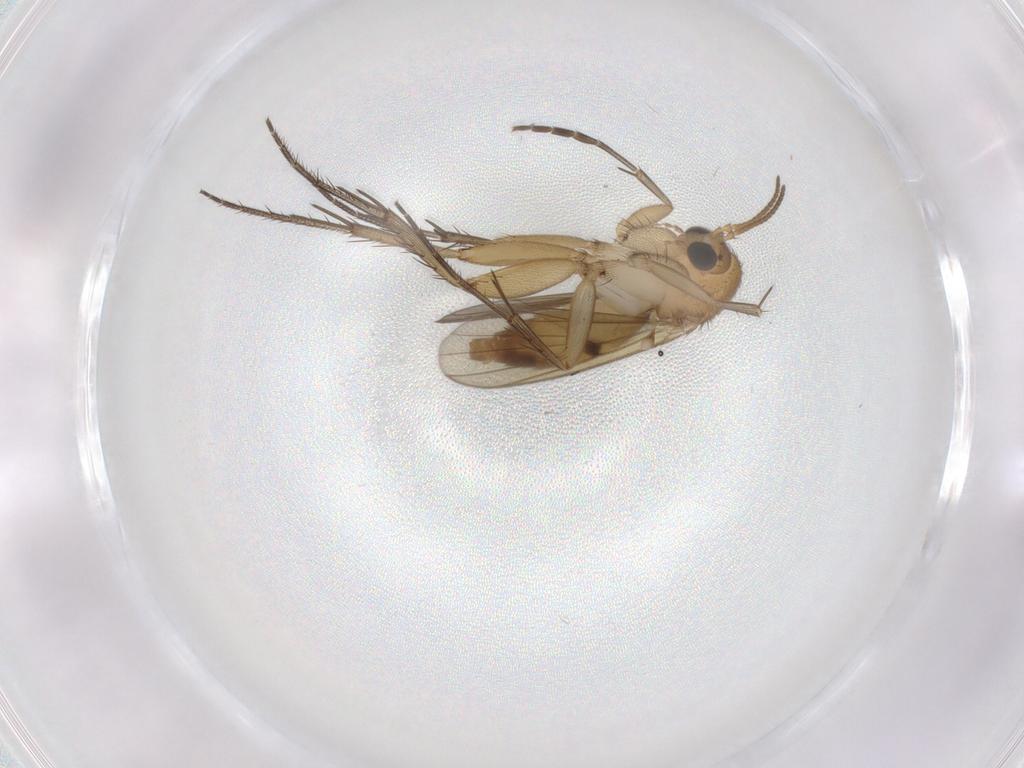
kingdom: Animalia
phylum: Arthropoda
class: Insecta
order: Diptera
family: Mycetophilidae
